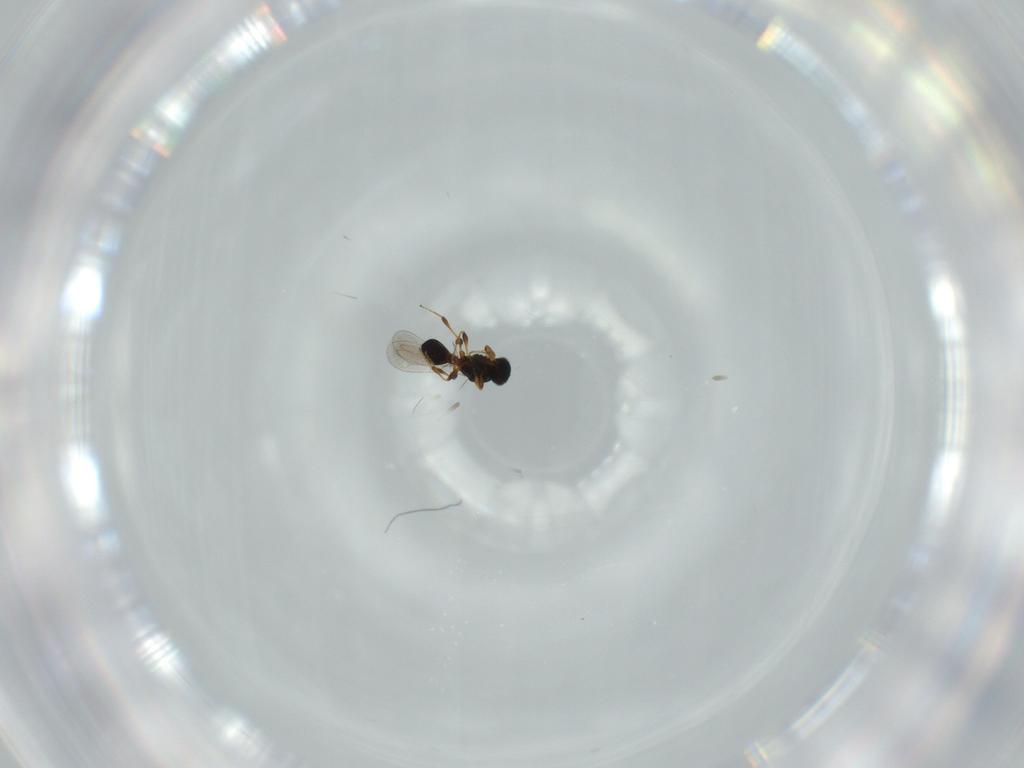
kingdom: Animalia
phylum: Arthropoda
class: Insecta
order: Hymenoptera
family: Platygastridae
